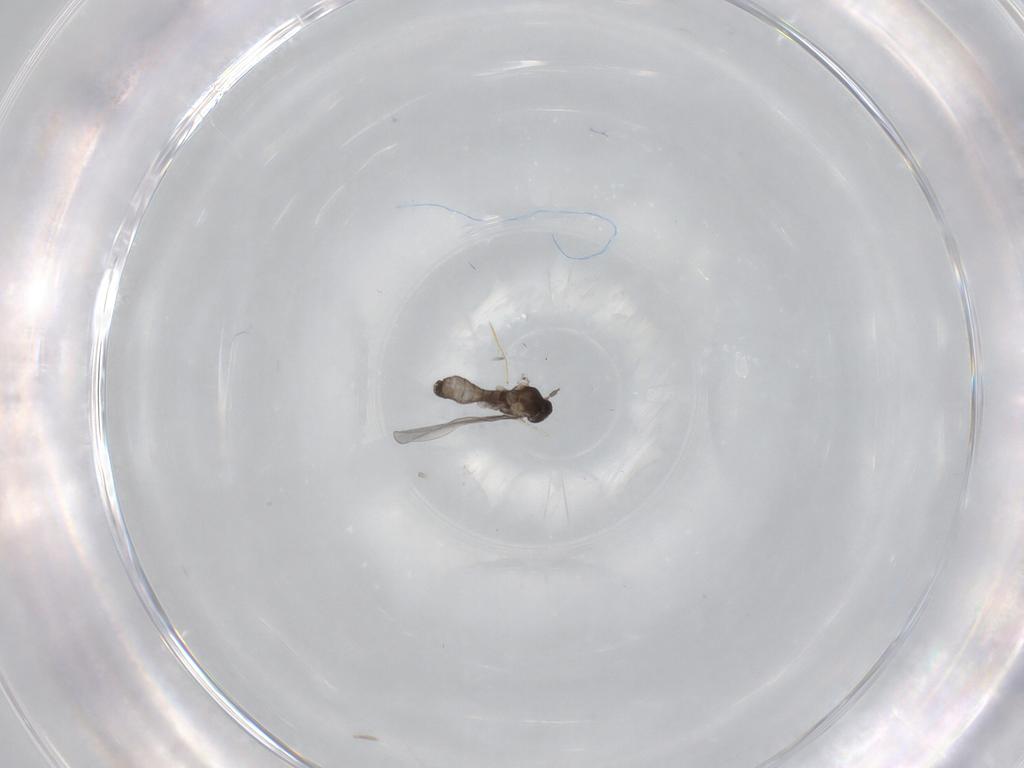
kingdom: Animalia
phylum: Arthropoda
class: Insecta
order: Diptera
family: Cecidomyiidae
